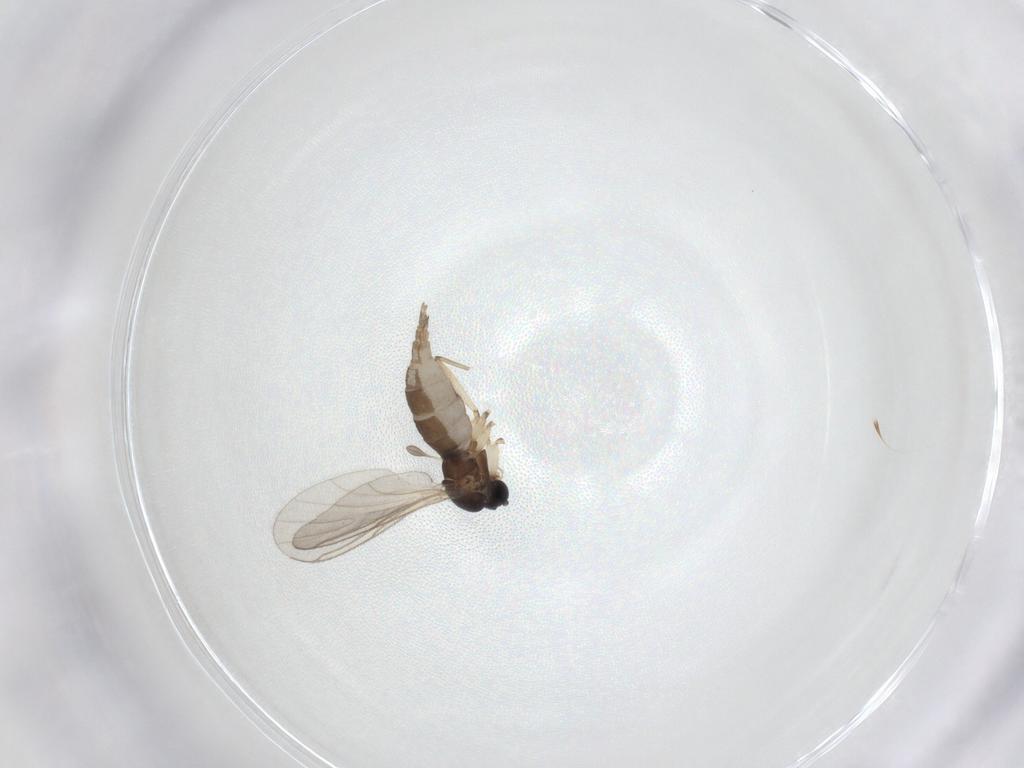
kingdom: Animalia
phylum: Arthropoda
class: Insecta
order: Diptera
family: Sciaridae
